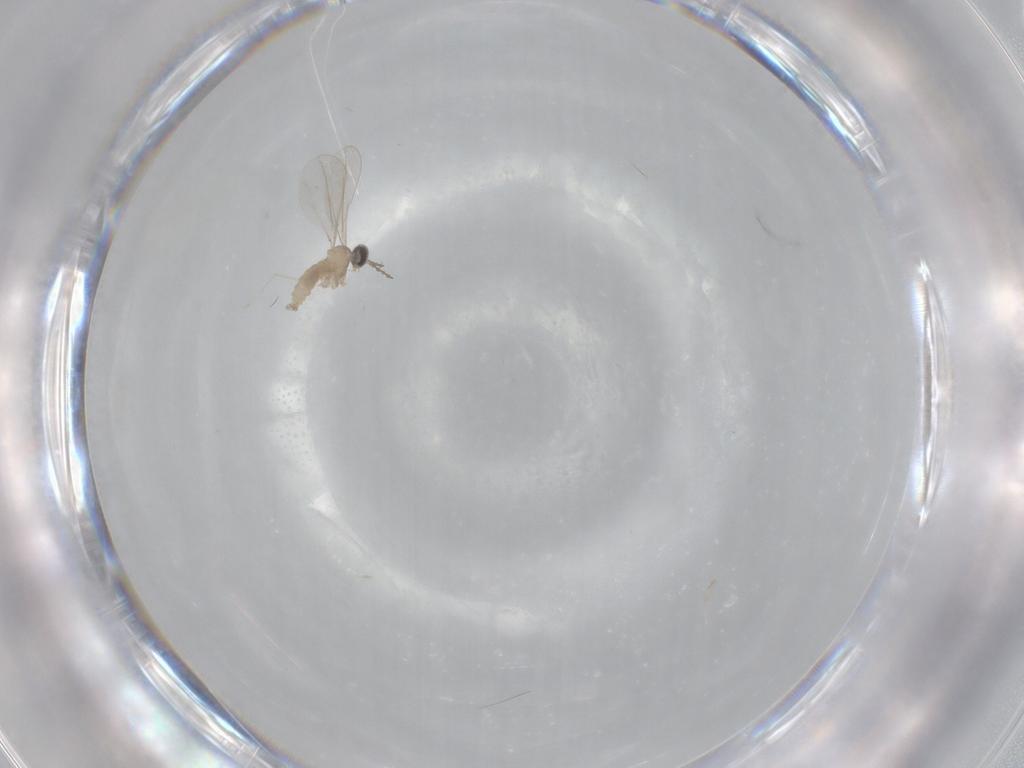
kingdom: Animalia
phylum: Arthropoda
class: Insecta
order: Diptera
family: Cecidomyiidae
